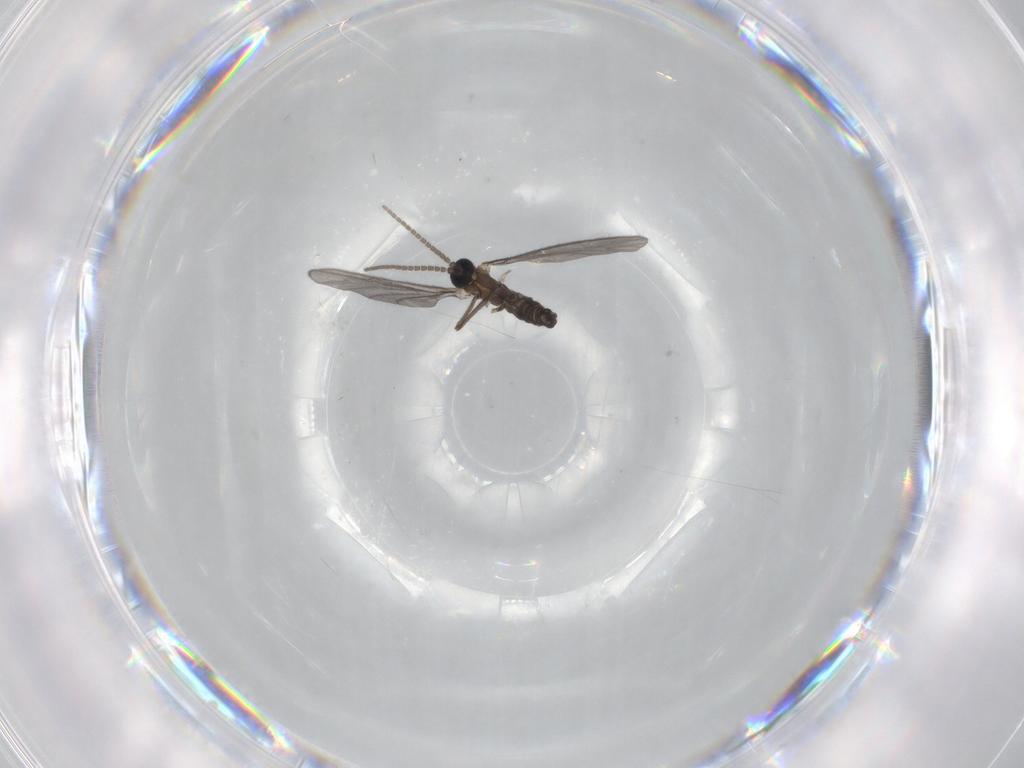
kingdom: Animalia
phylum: Arthropoda
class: Insecta
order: Diptera
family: Sciaridae
